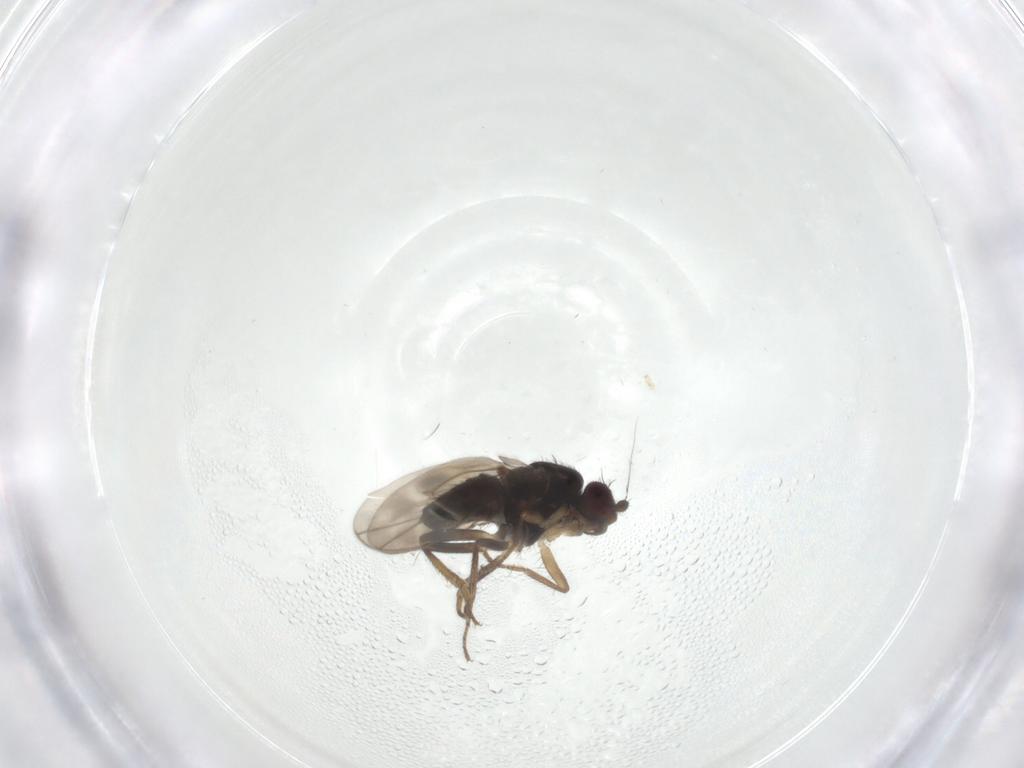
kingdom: Animalia
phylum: Arthropoda
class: Insecta
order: Diptera
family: Sphaeroceridae
